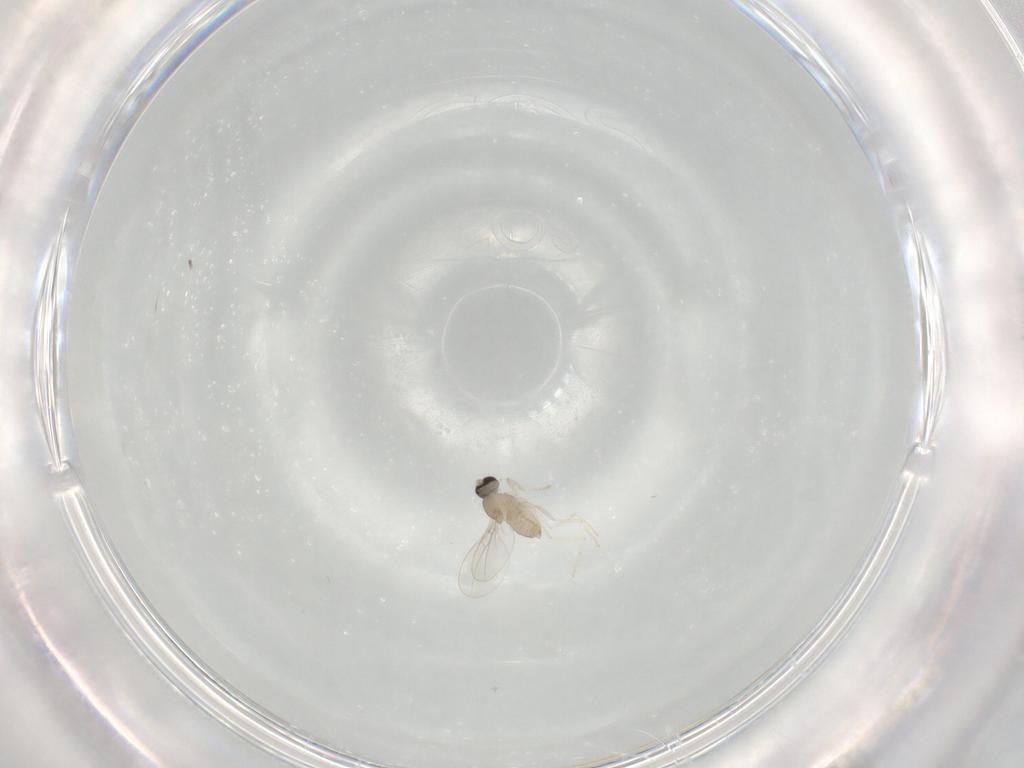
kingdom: Animalia
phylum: Arthropoda
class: Insecta
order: Diptera
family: Cecidomyiidae
